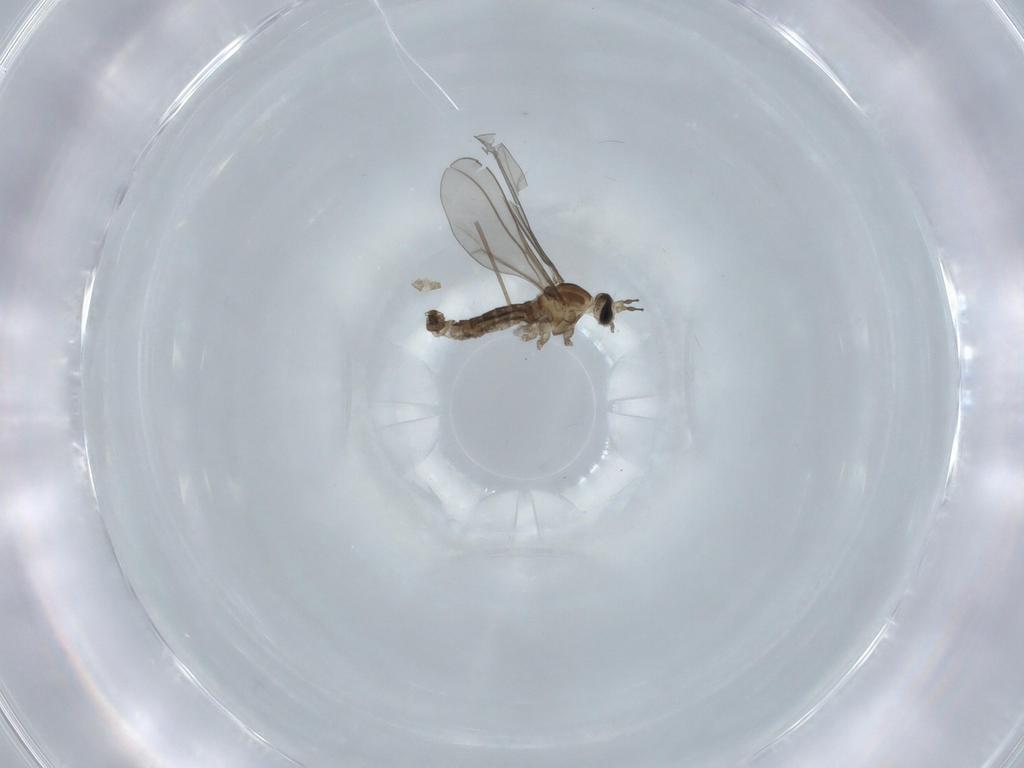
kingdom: Animalia
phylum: Arthropoda
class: Insecta
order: Diptera
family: Cecidomyiidae
